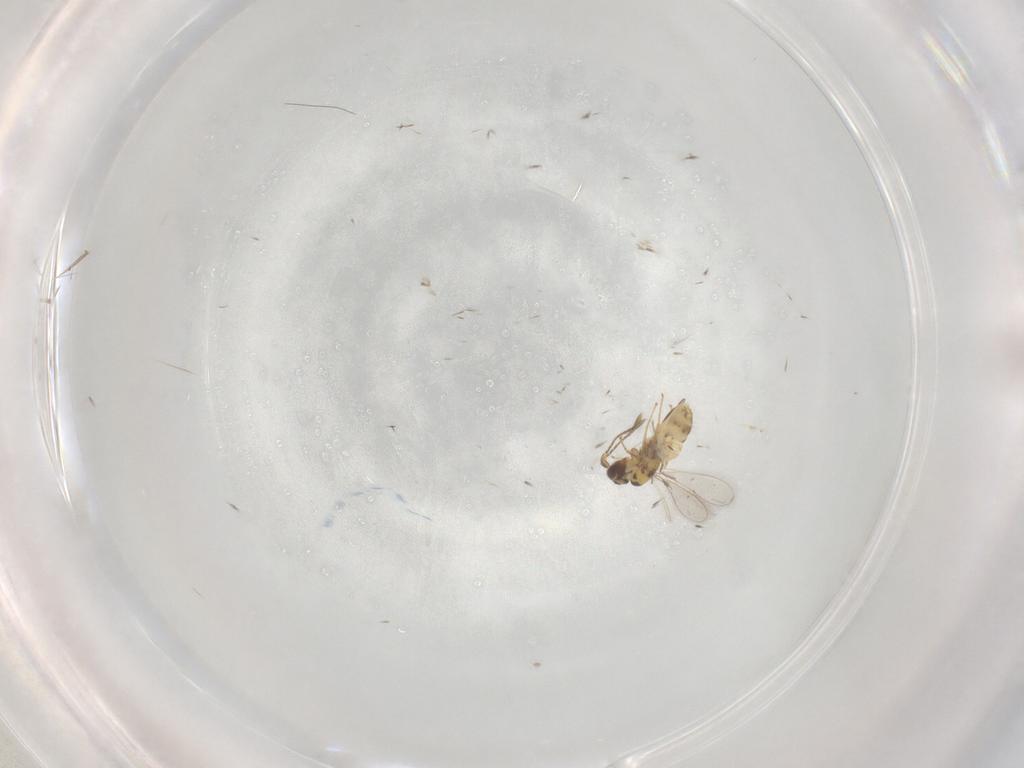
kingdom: Animalia
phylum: Arthropoda
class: Insecta
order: Hymenoptera
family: Mymaridae
